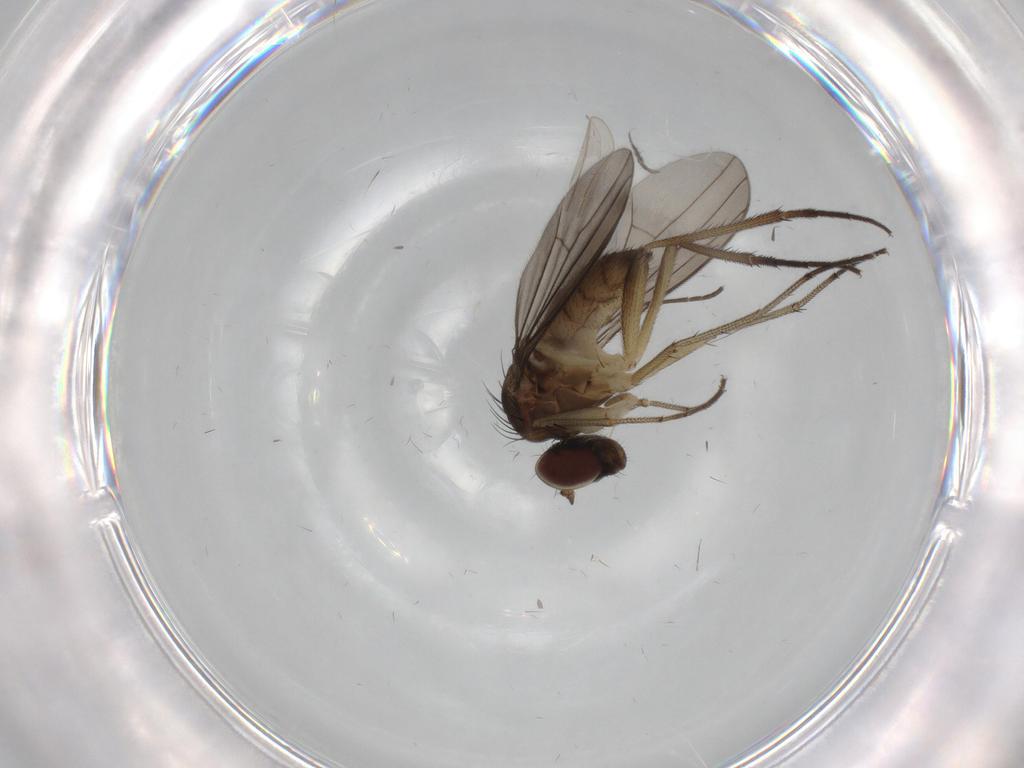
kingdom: Animalia
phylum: Arthropoda
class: Insecta
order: Diptera
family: Dolichopodidae
